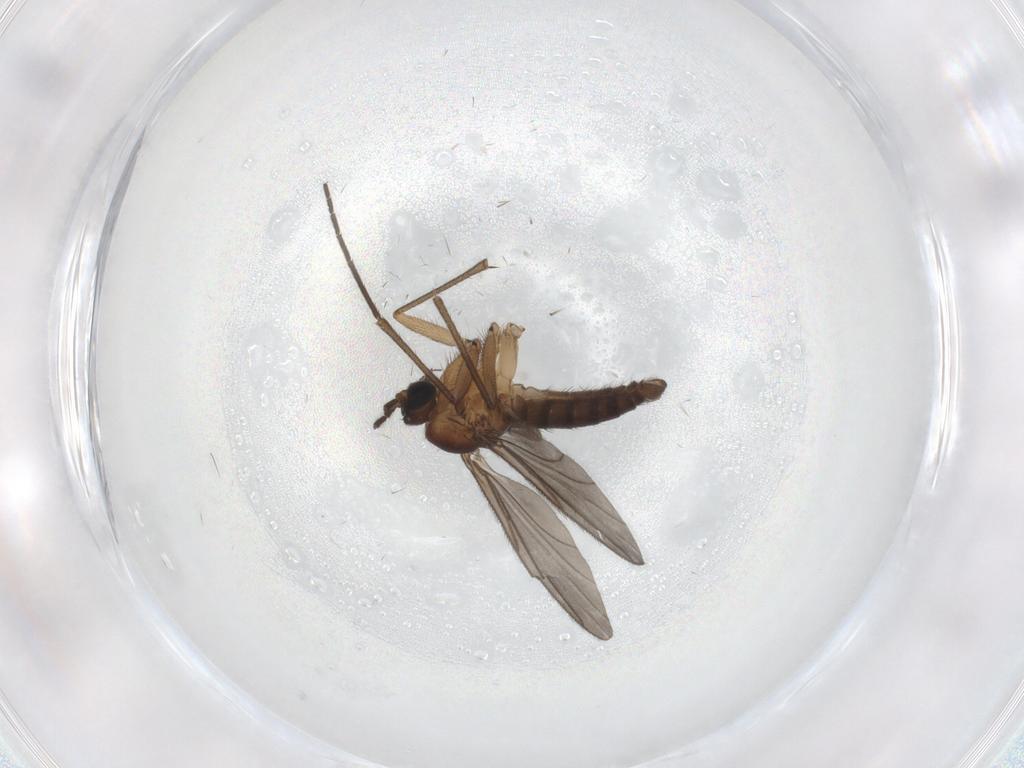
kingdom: Animalia
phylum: Arthropoda
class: Insecta
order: Diptera
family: Sciaridae
